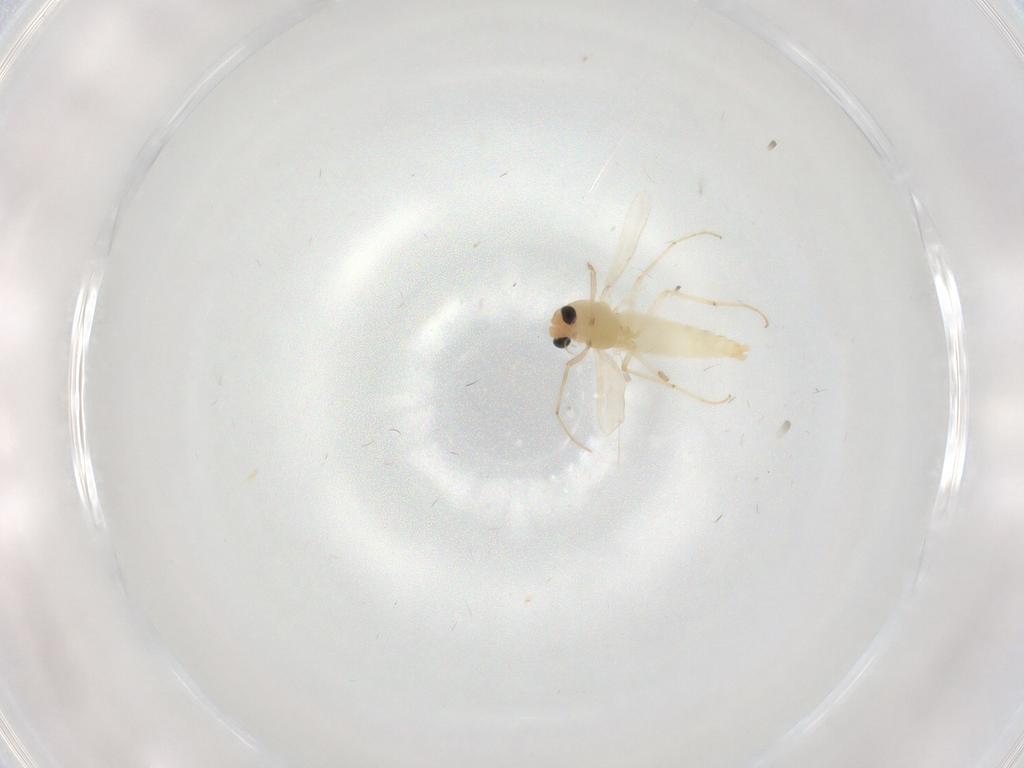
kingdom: Animalia
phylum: Arthropoda
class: Insecta
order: Diptera
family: Chironomidae
